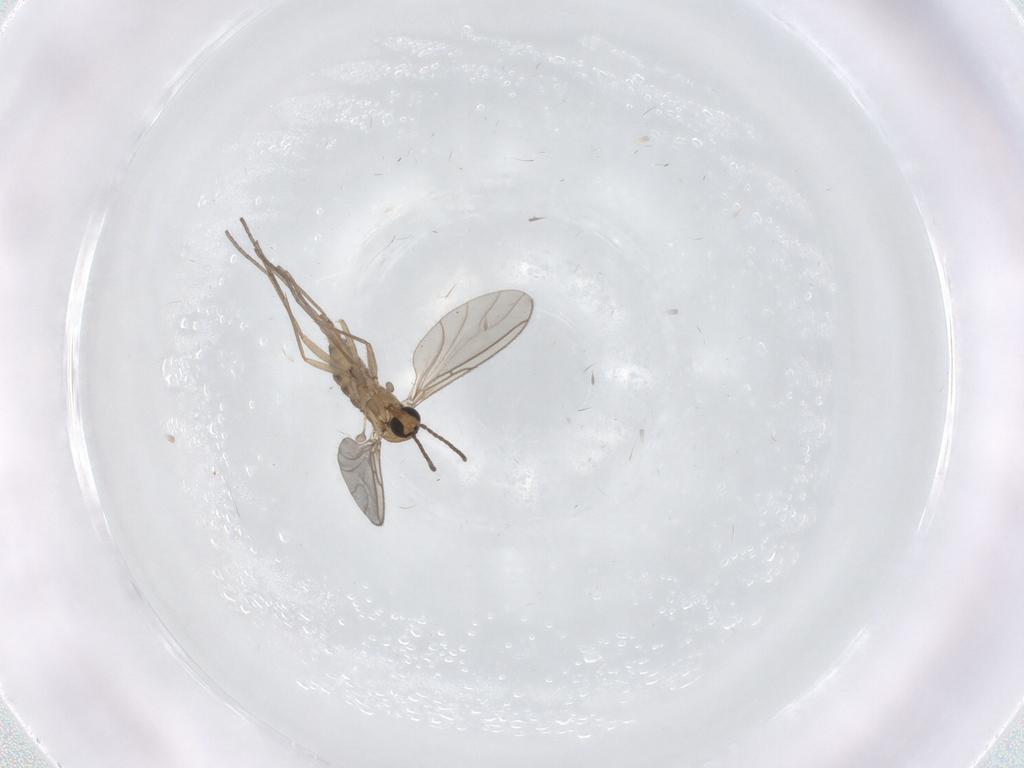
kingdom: Animalia
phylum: Arthropoda
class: Insecta
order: Diptera
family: Sciaridae
